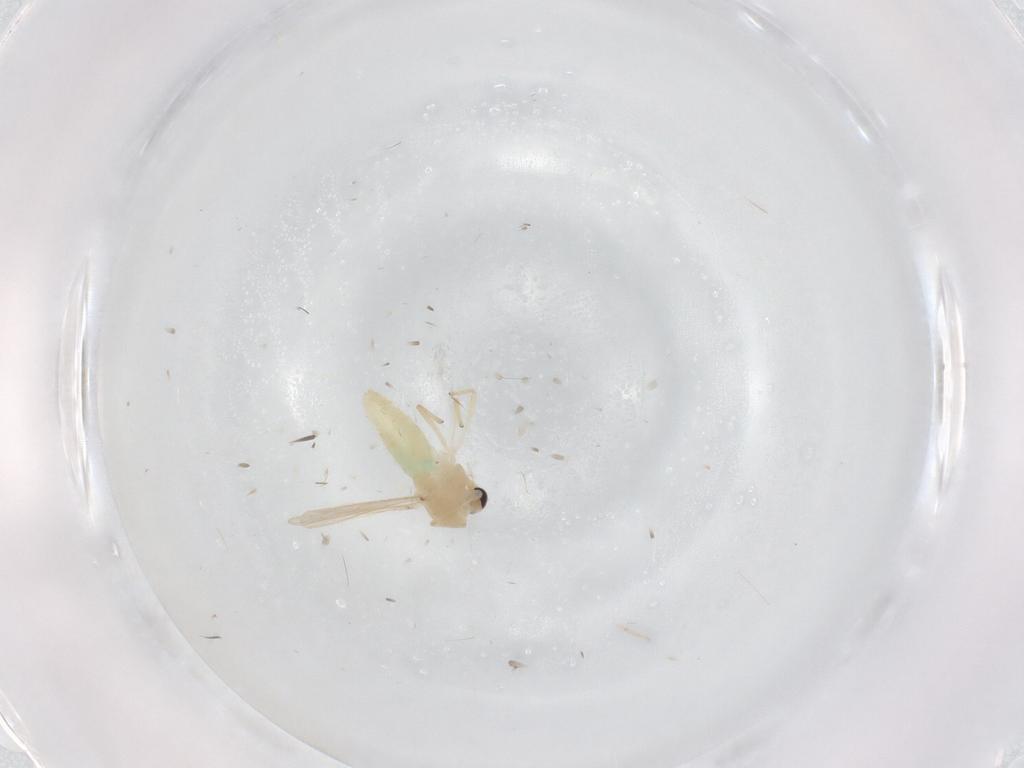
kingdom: Animalia
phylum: Arthropoda
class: Insecta
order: Diptera
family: Chironomidae
